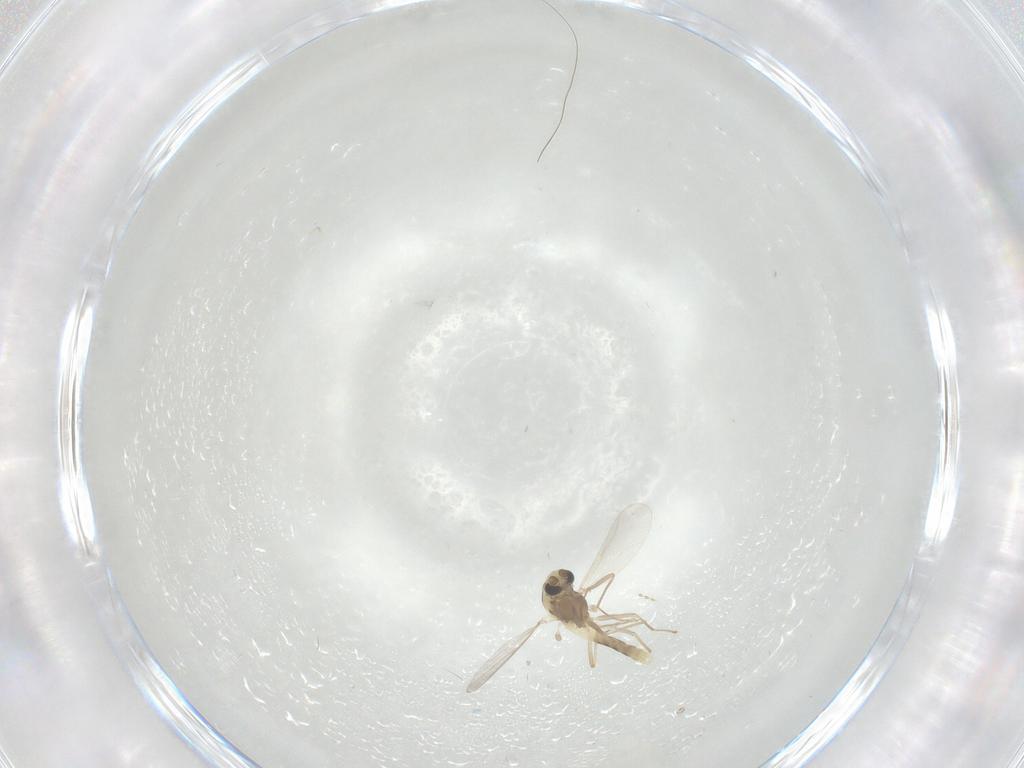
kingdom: Animalia
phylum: Arthropoda
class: Insecta
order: Diptera
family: Chironomidae
